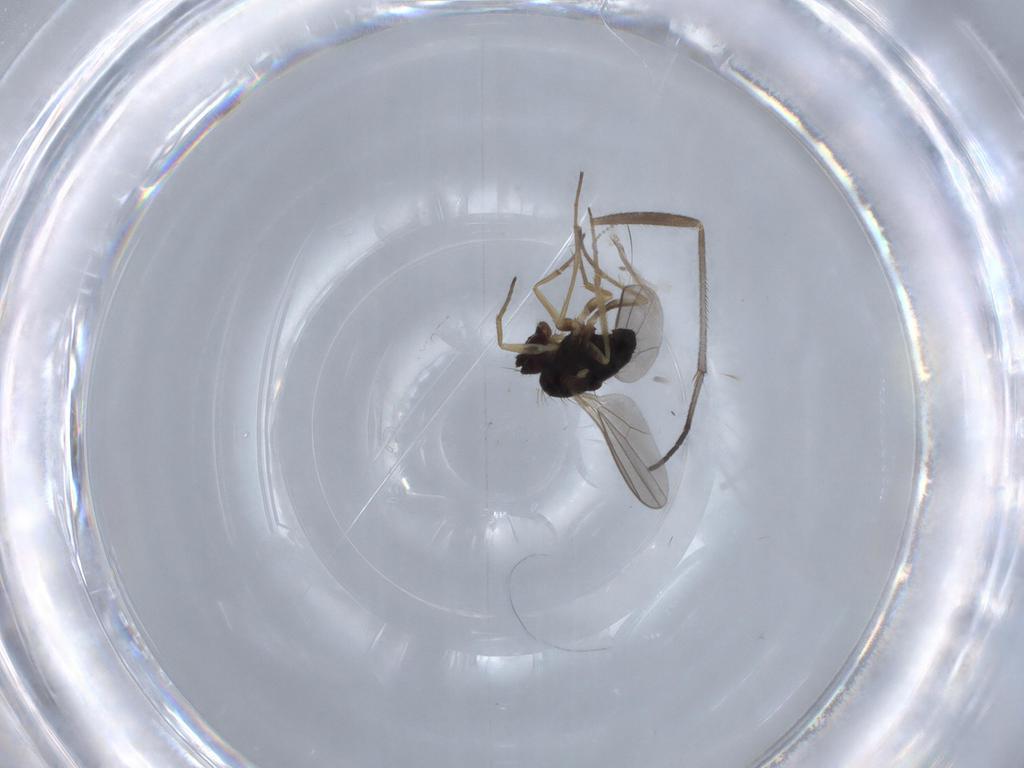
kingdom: Animalia
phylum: Arthropoda
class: Insecta
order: Diptera
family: Dolichopodidae
